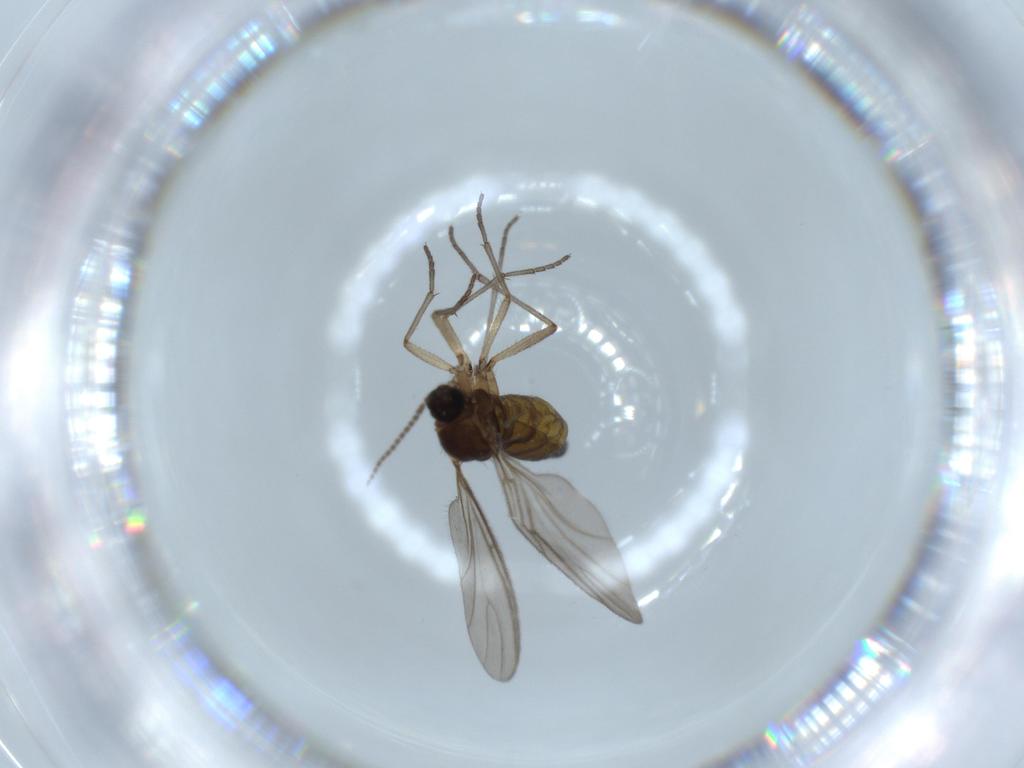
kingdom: Animalia
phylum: Arthropoda
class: Insecta
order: Diptera
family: Sciaridae
